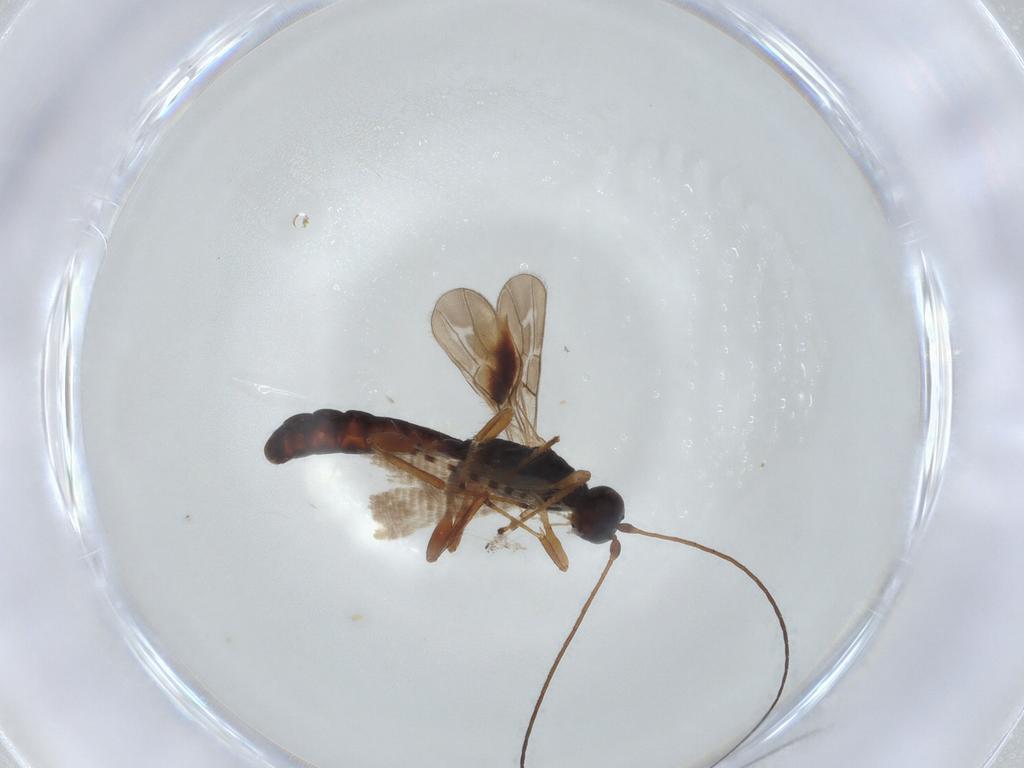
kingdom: Animalia
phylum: Arthropoda
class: Insecta
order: Hymenoptera
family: Braconidae
